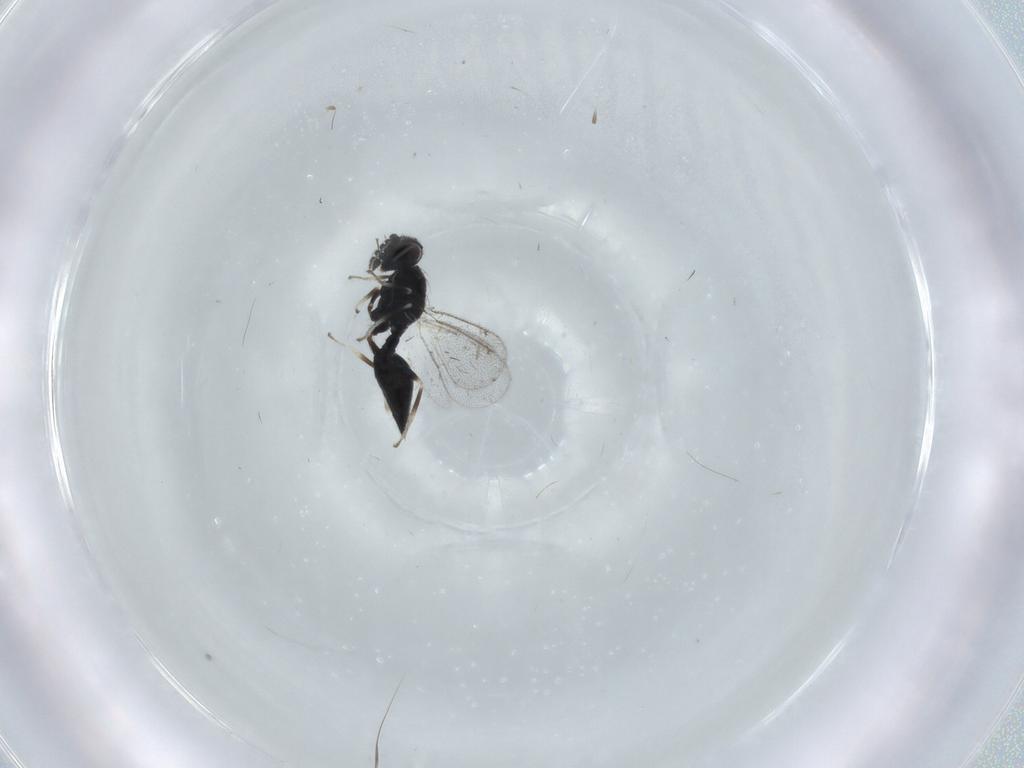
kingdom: Animalia
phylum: Arthropoda
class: Insecta
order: Hymenoptera
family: Eulophidae
